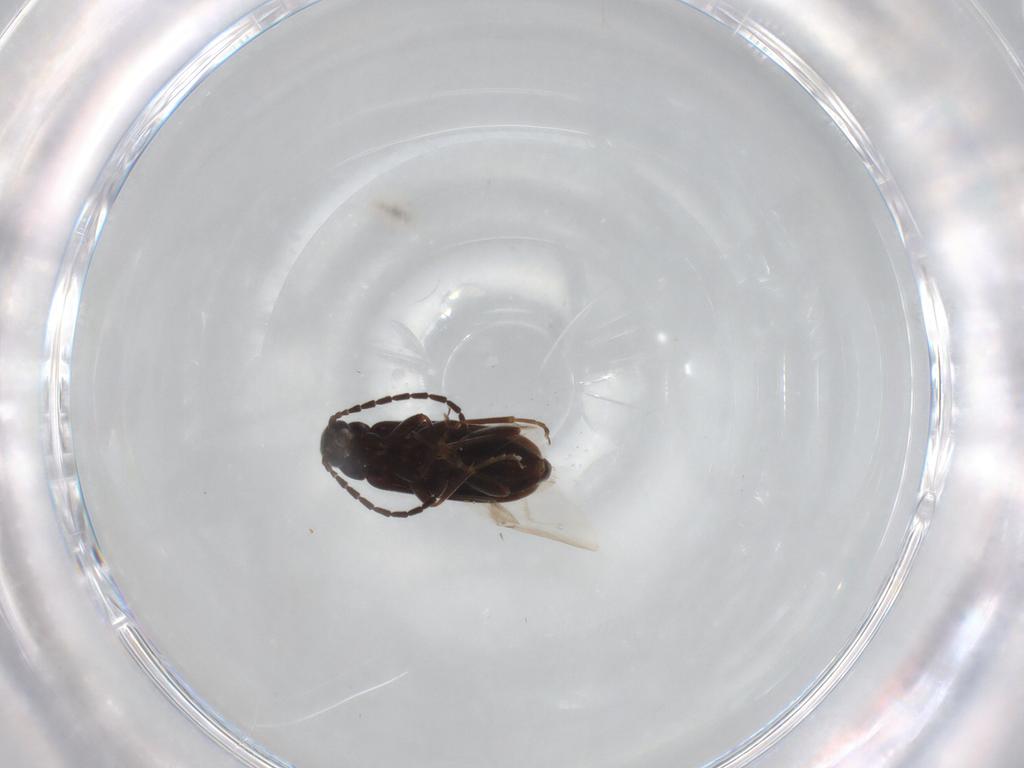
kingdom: Animalia
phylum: Arthropoda
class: Insecta
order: Coleoptera
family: Scraptiidae
